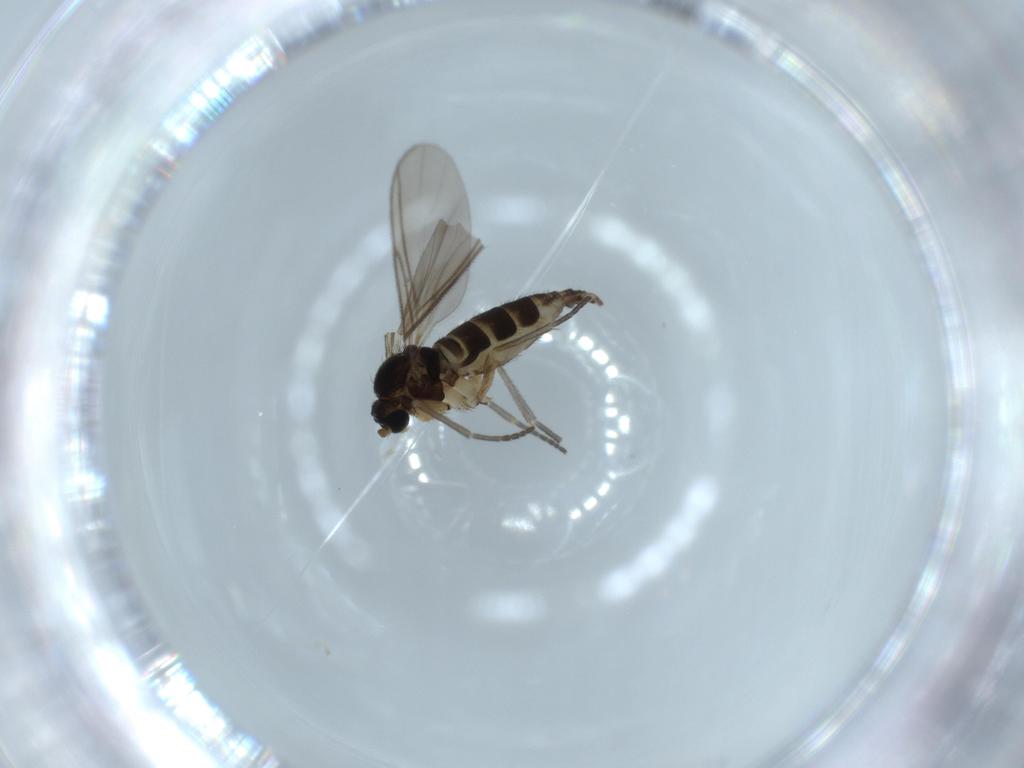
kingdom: Animalia
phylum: Arthropoda
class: Insecta
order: Diptera
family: Sciaridae
